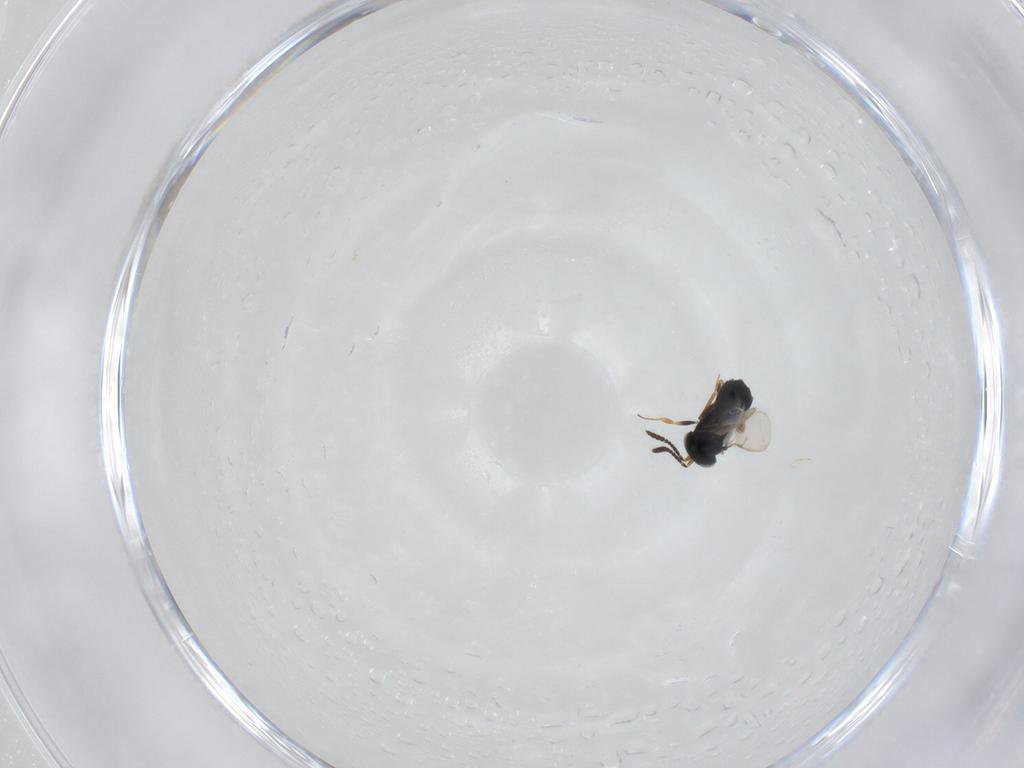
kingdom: Animalia
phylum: Arthropoda
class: Insecta
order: Hymenoptera
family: Scelionidae
